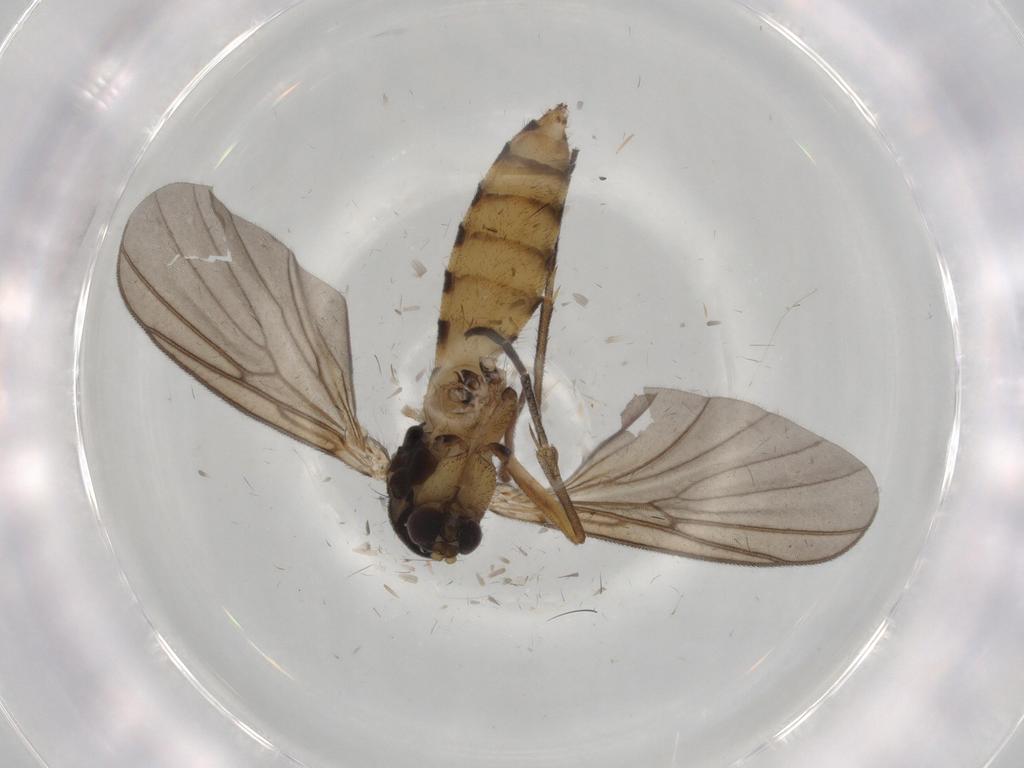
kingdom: Animalia
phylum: Arthropoda
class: Insecta
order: Diptera
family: Mycetophilidae
